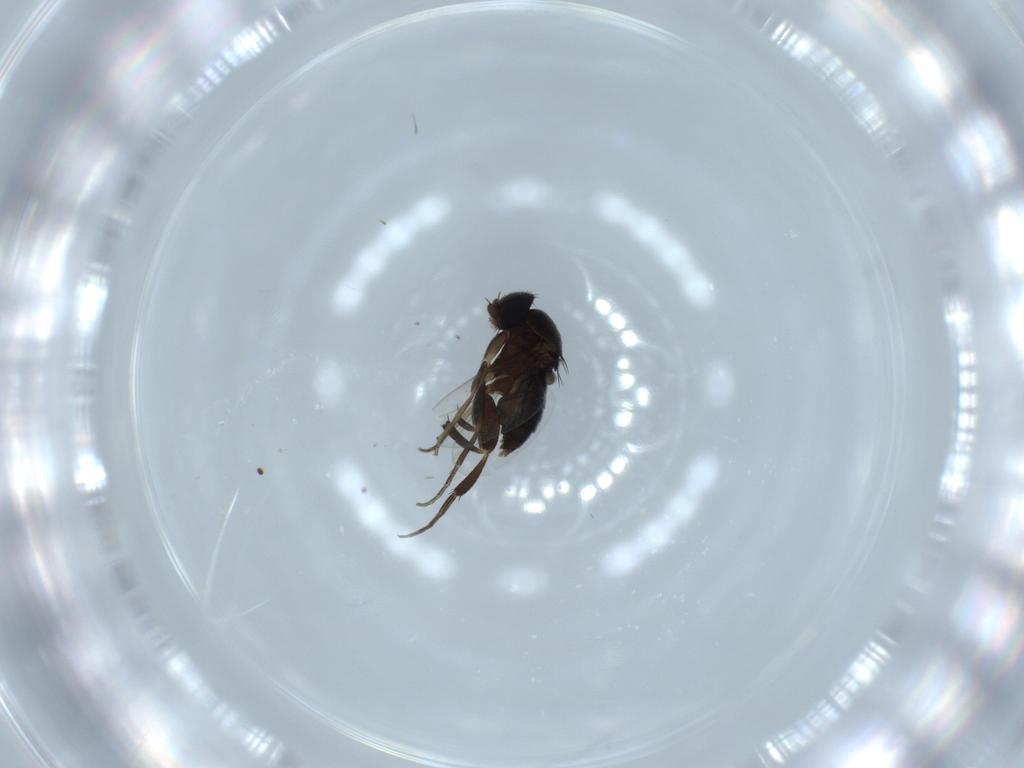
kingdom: Animalia
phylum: Arthropoda
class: Insecta
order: Diptera
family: Phoridae
